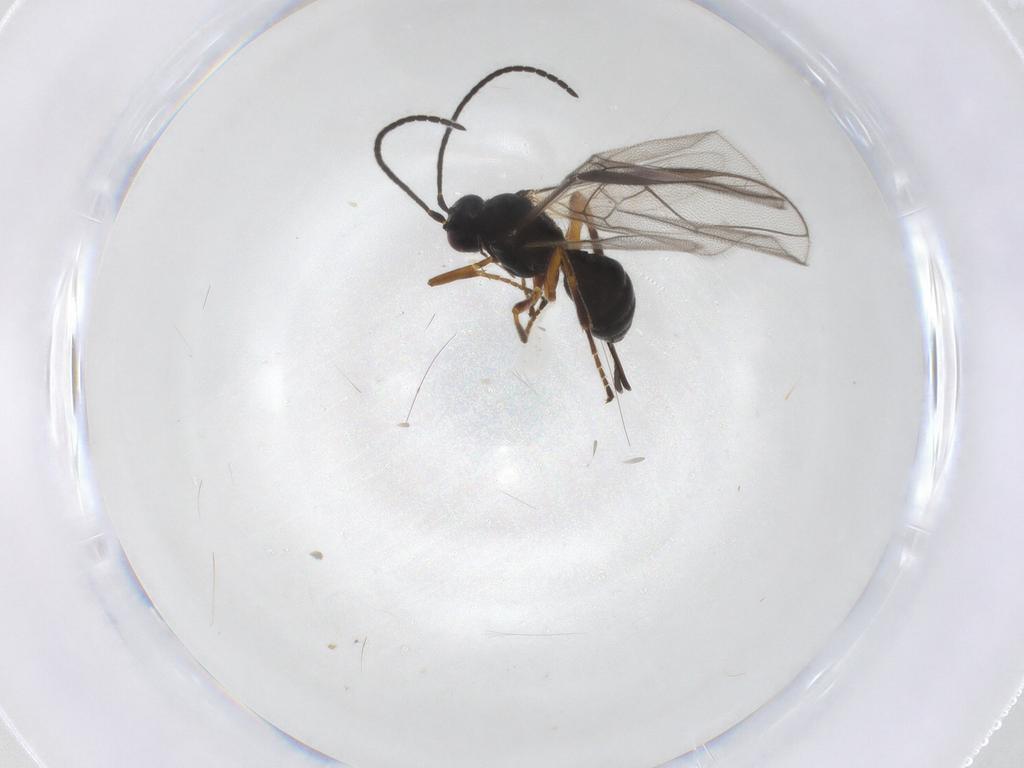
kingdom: Animalia
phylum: Arthropoda
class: Insecta
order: Hymenoptera
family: Braconidae
